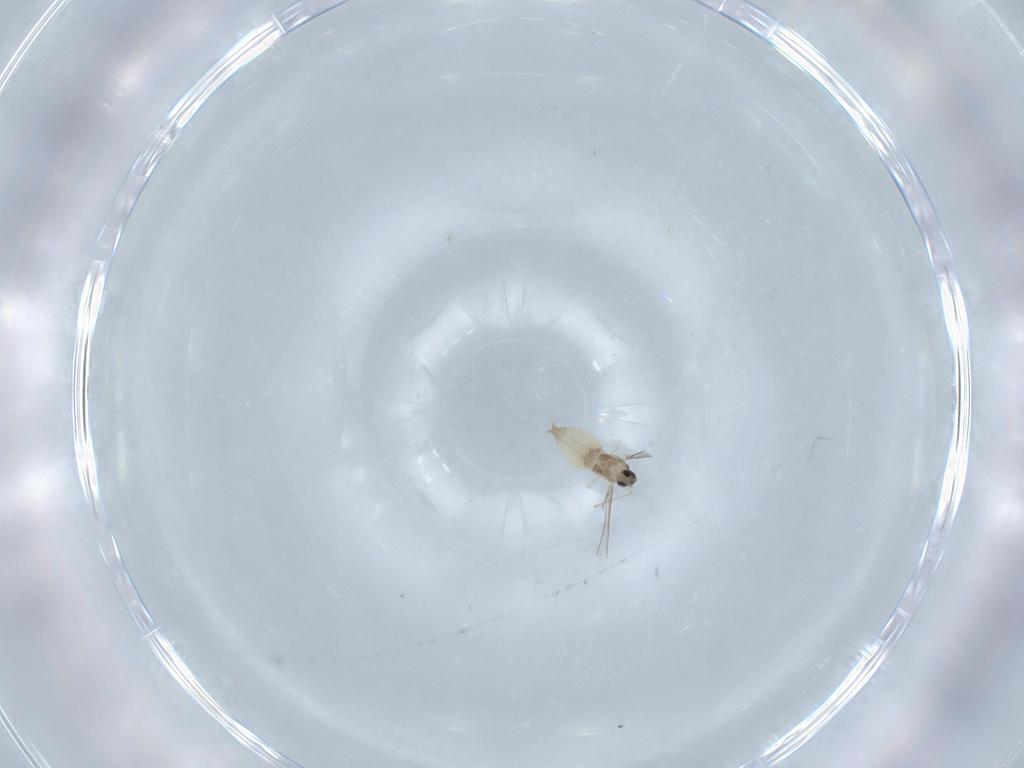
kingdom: Animalia
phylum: Arthropoda
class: Insecta
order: Diptera
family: Cecidomyiidae
